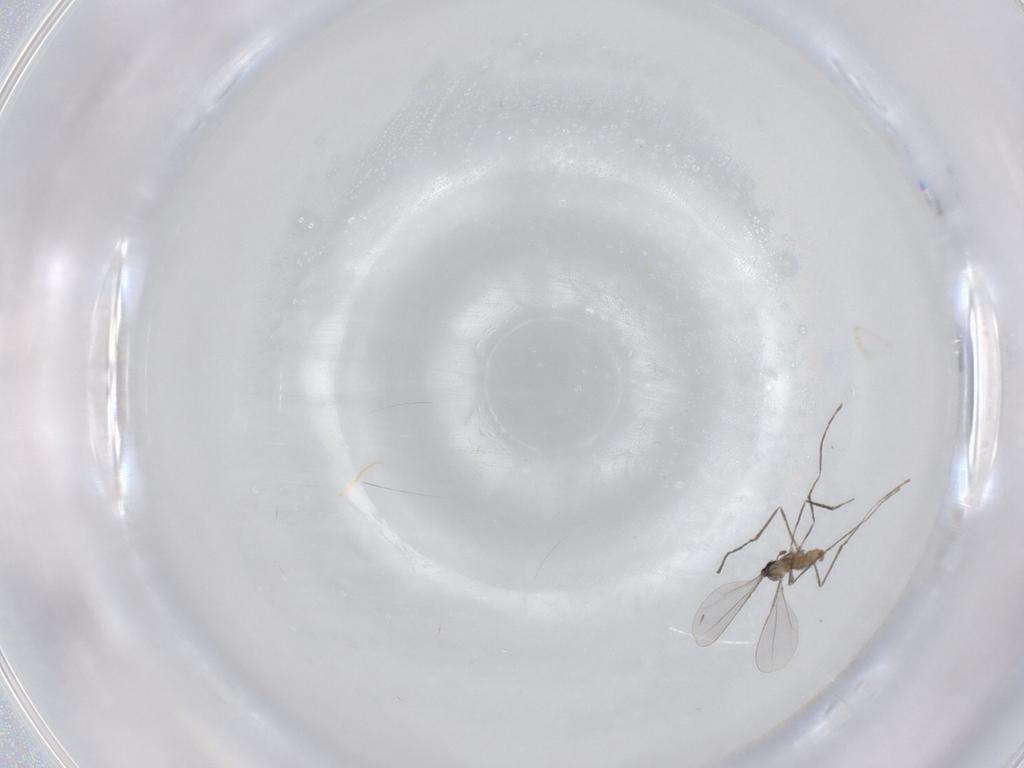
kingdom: Animalia
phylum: Arthropoda
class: Insecta
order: Diptera
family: Cecidomyiidae
